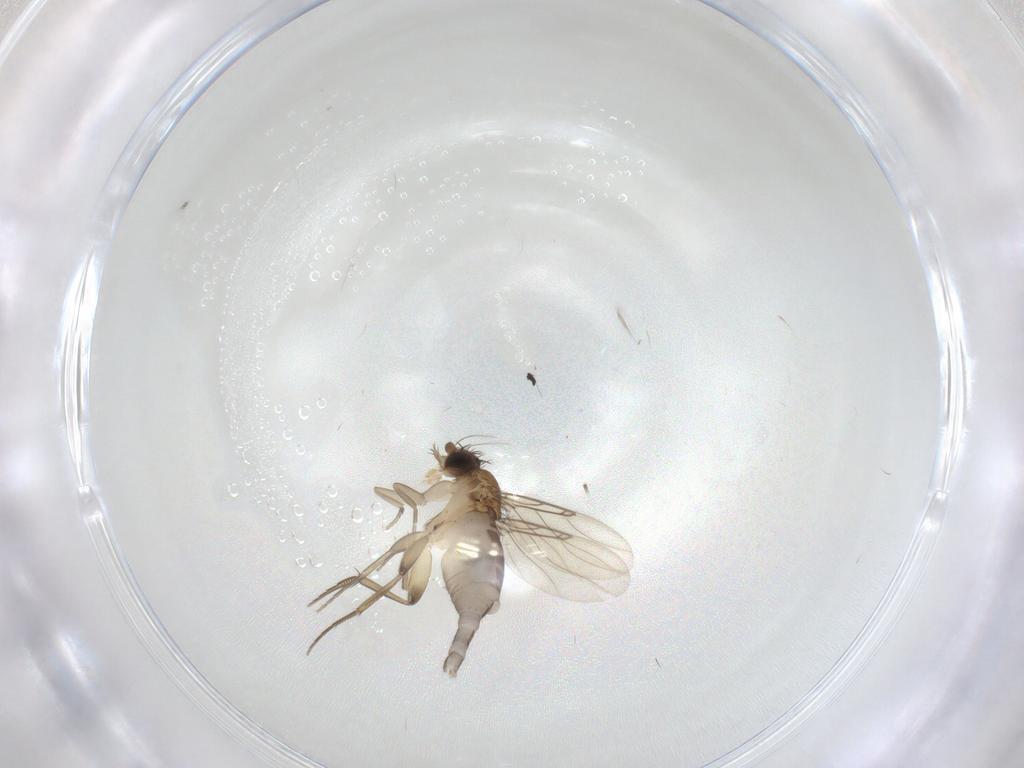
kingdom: Animalia
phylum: Arthropoda
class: Insecta
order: Diptera
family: Phoridae
